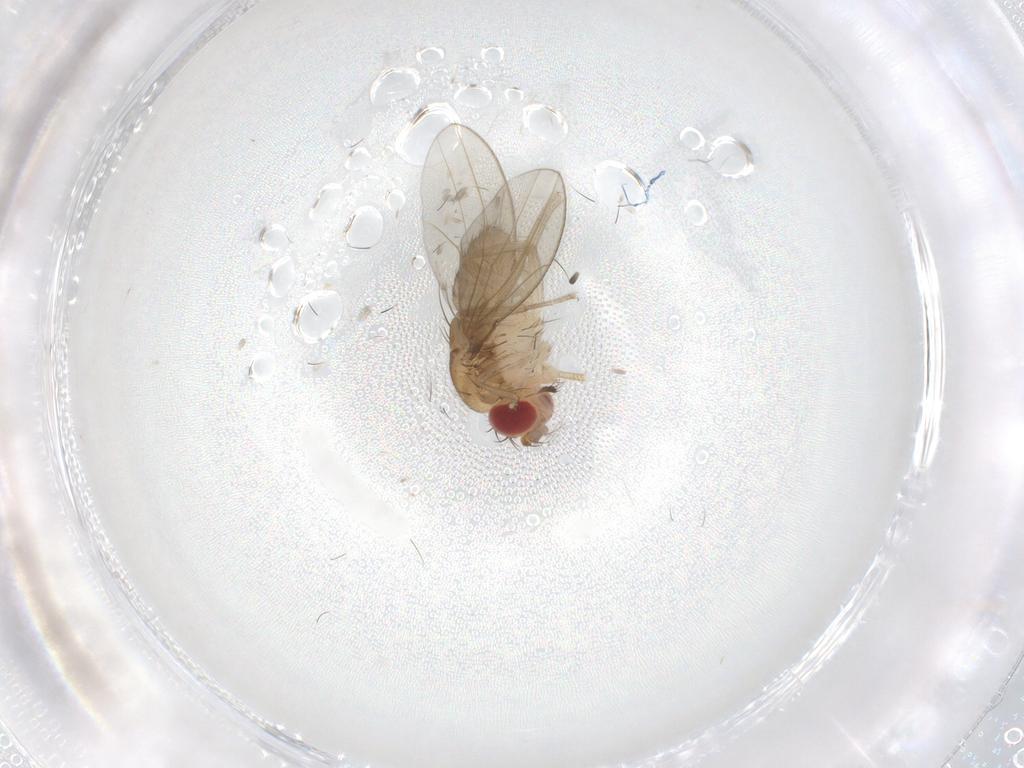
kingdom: Animalia
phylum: Arthropoda
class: Insecta
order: Diptera
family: Drosophilidae
